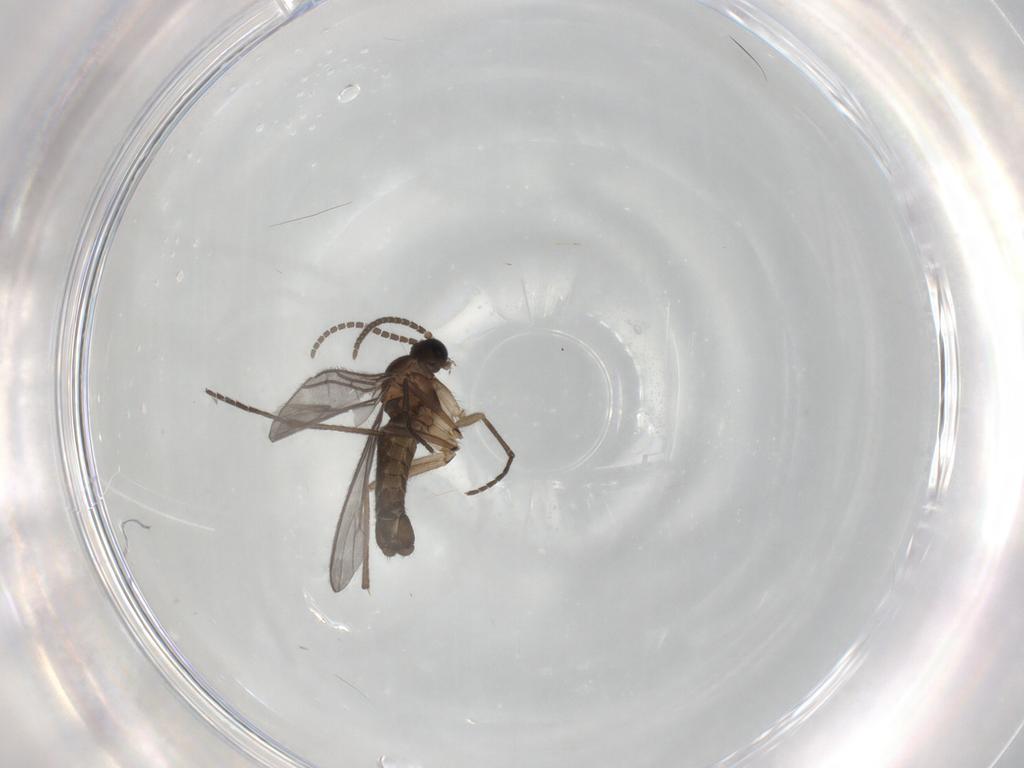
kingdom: Animalia
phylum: Arthropoda
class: Insecta
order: Diptera
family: Sciaridae
